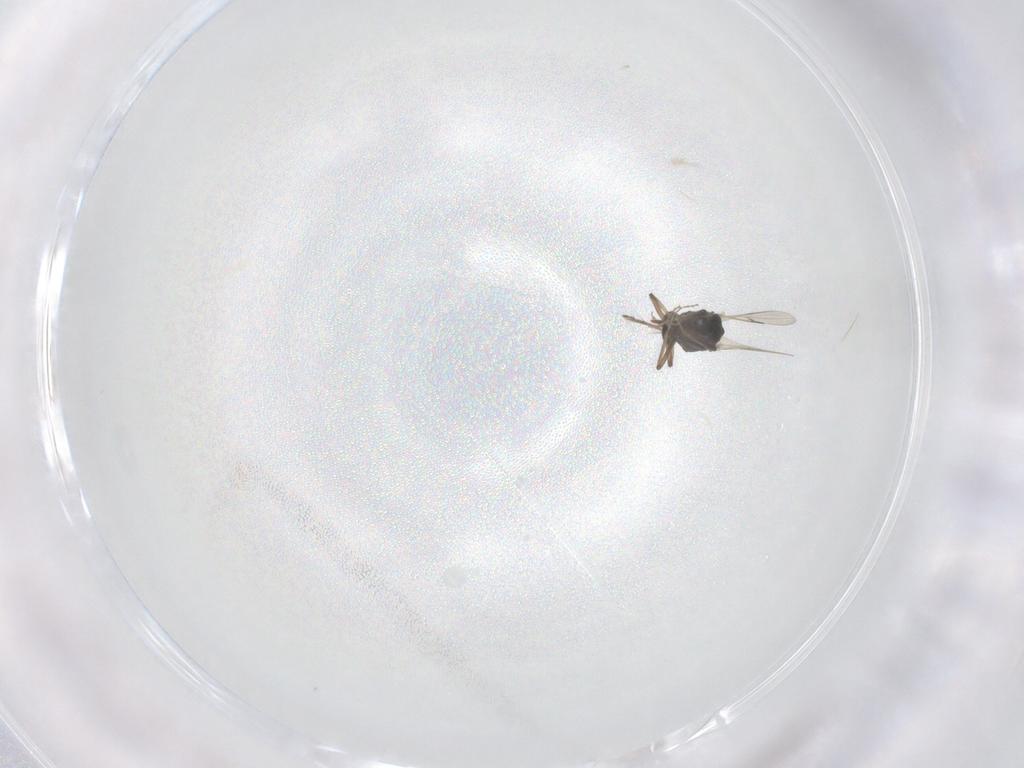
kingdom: Animalia
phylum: Arthropoda
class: Insecta
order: Diptera
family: Ceratopogonidae
